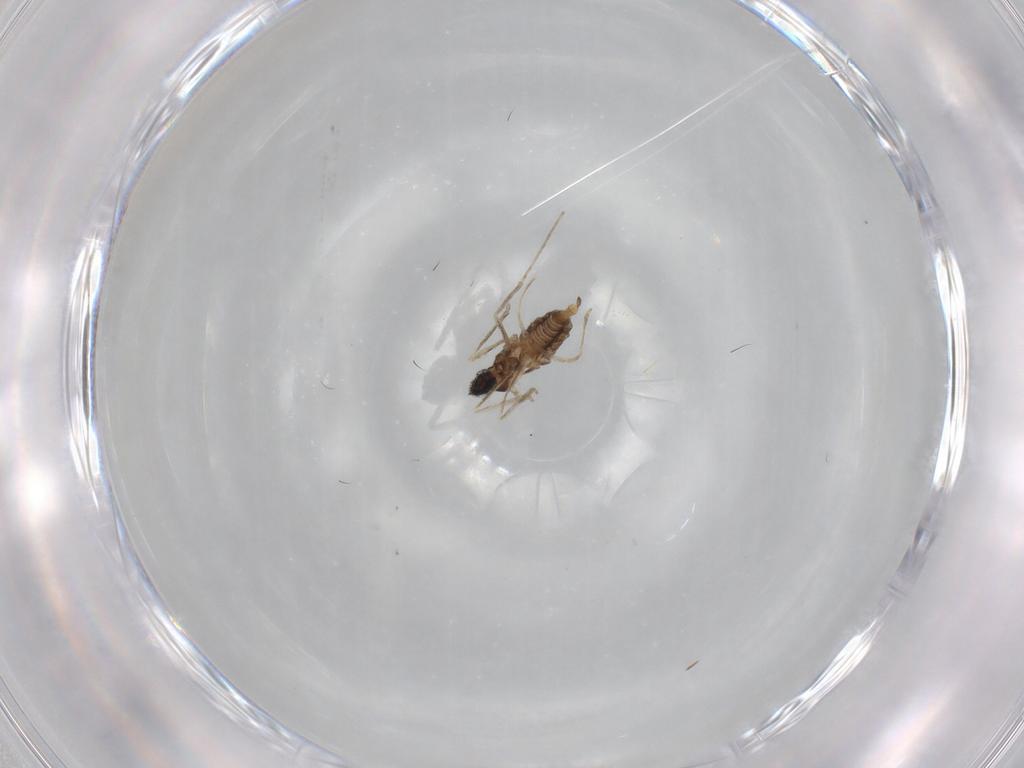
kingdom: Animalia
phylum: Arthropoda
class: Insecta
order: Diptera
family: Cecidomyiidae
